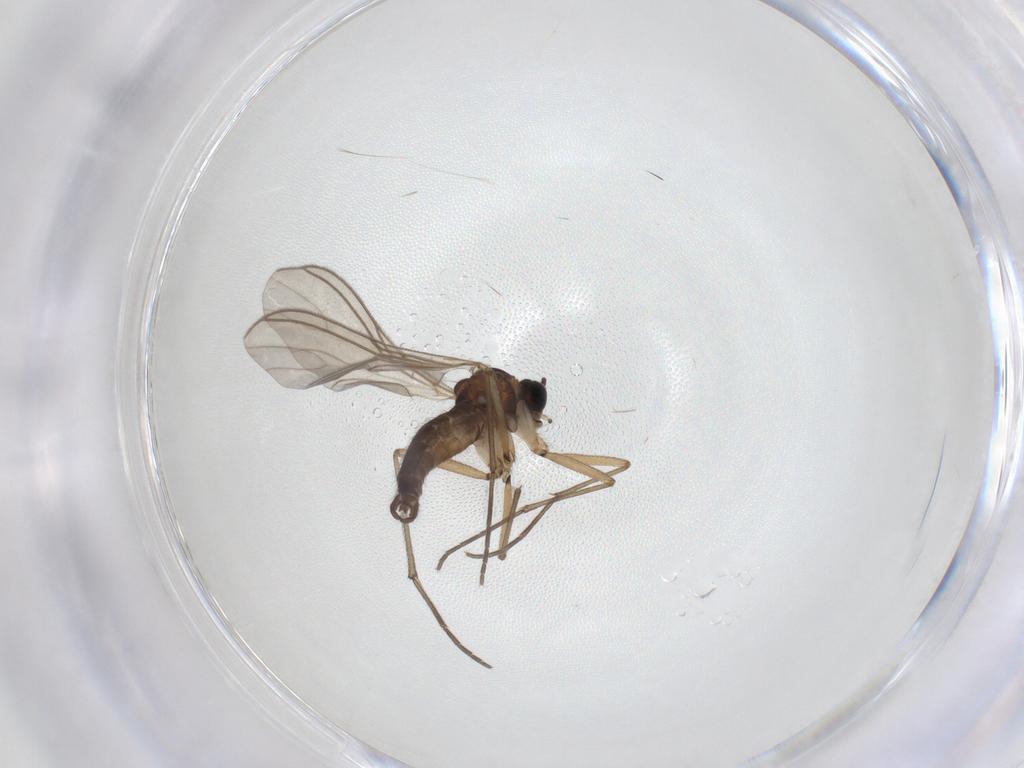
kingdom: Animalia
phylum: Arthropoda
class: Insecta
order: Diptera
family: Sciaridae
